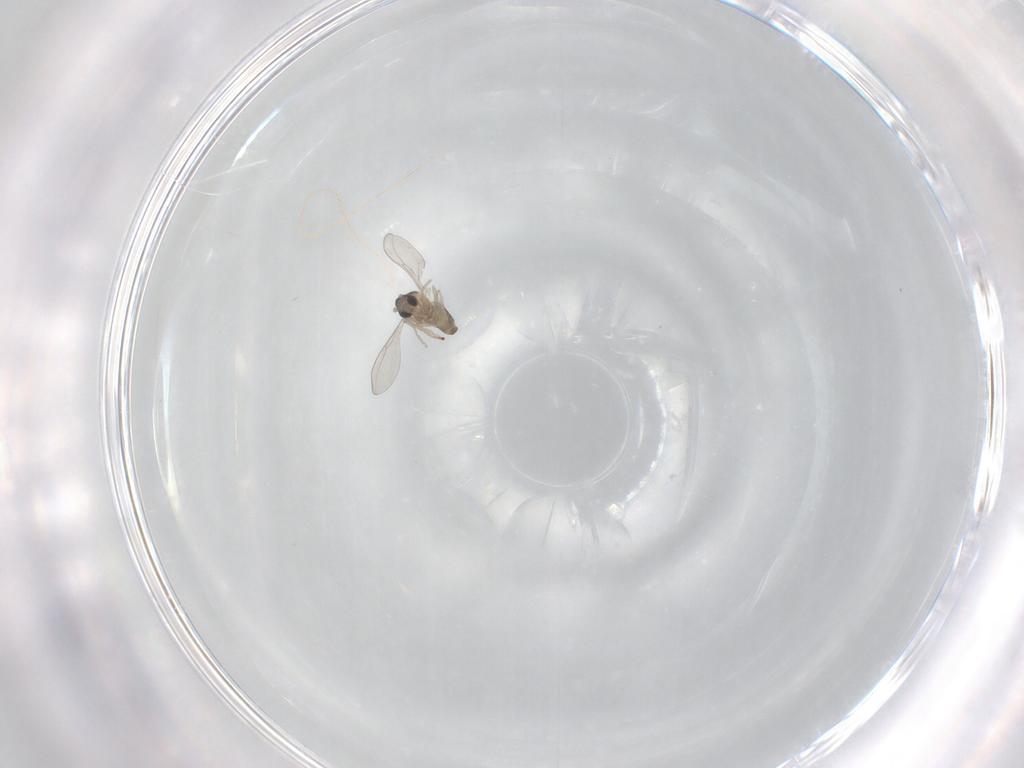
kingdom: Animalia
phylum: Arthropoda
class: Insecta
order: Diptera
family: Cecidomyiidae
